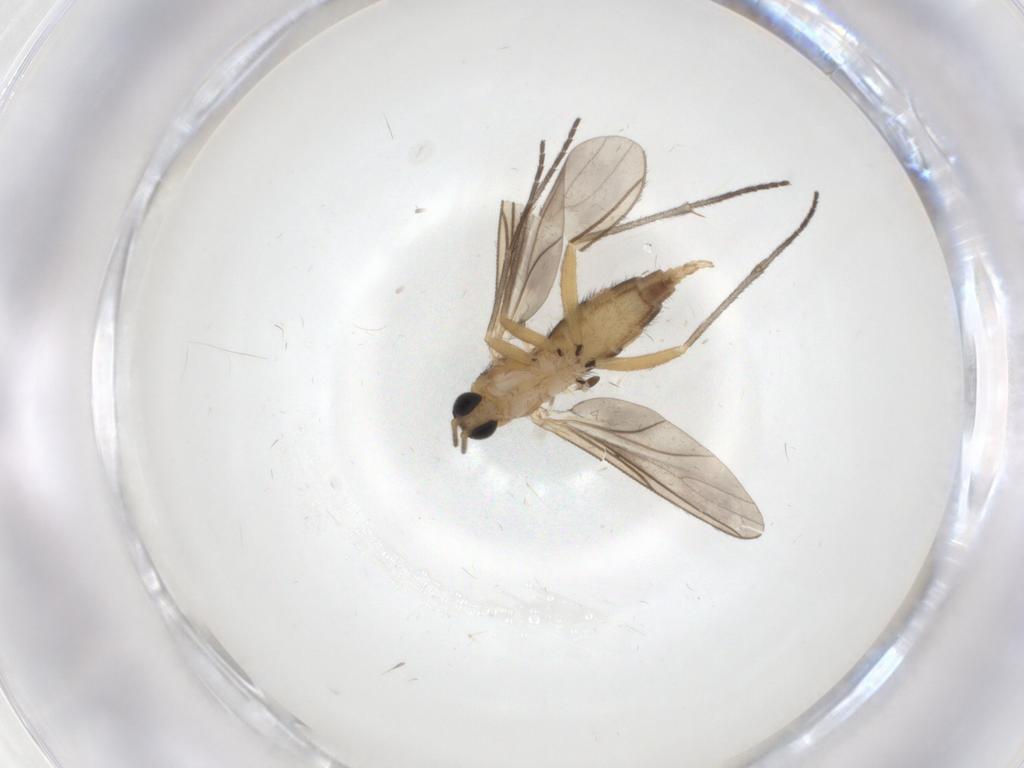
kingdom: Animalia
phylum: Arthropoda
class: Insecta
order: Diptera
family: Sciaridae
